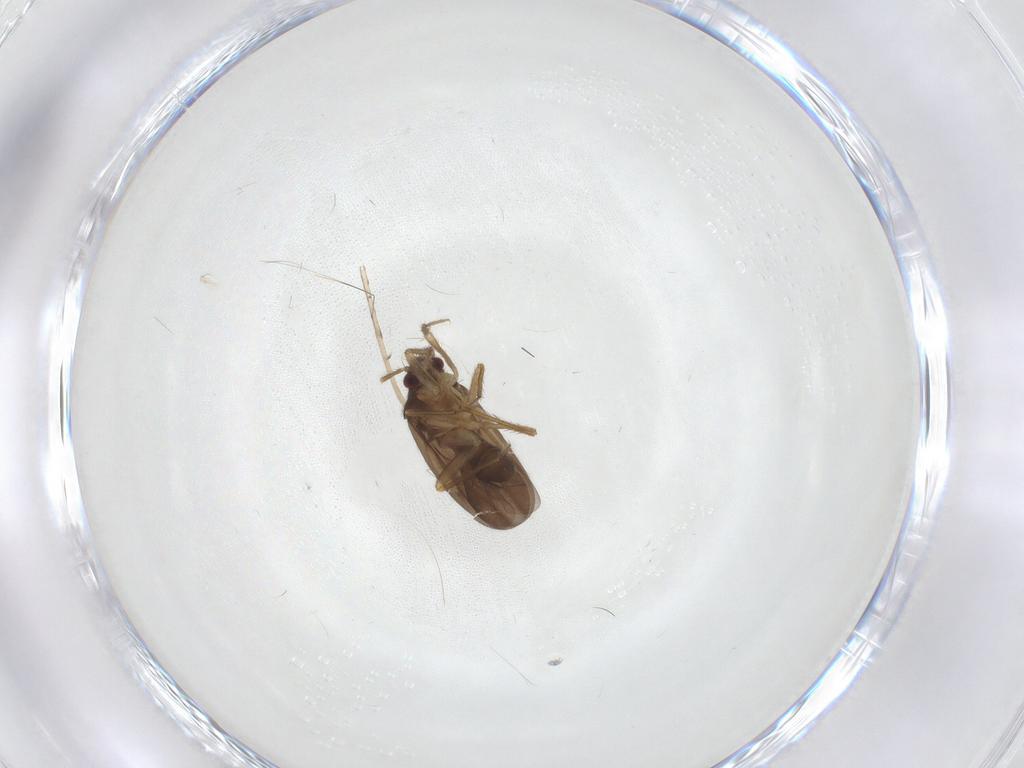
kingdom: Animalia
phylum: Arthropoda
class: Insecta
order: Hemiptera
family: Ceratocombidae
